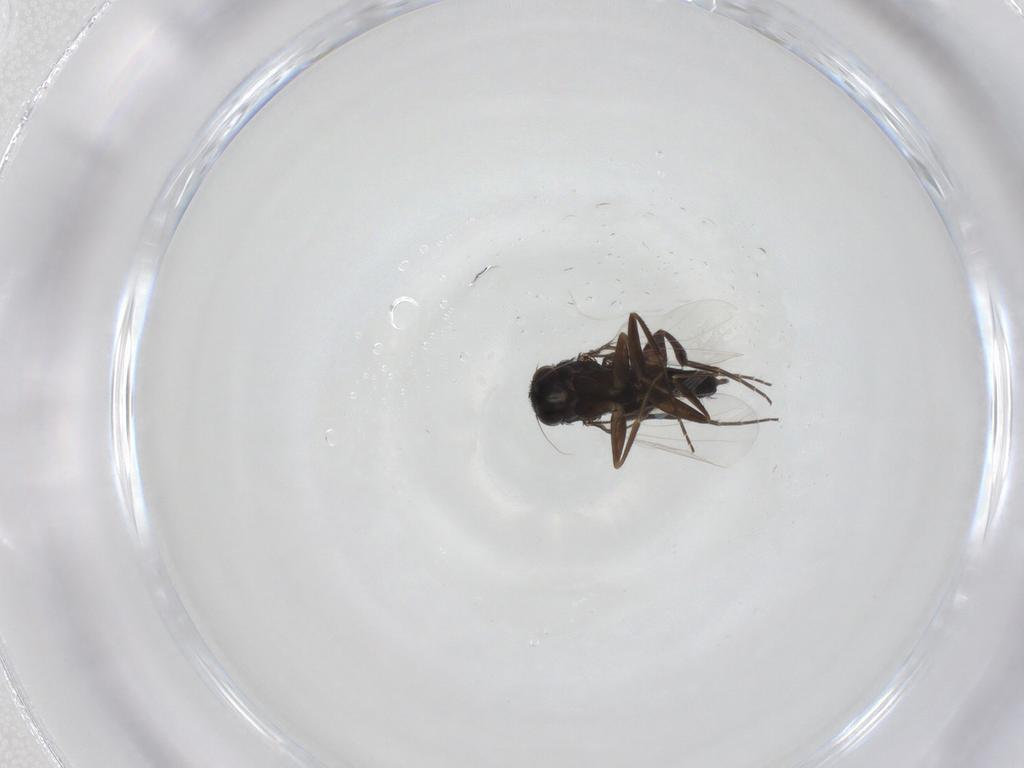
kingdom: Animalia
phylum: Arthropoda
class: Insecta
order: Diptera
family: Phoridae
